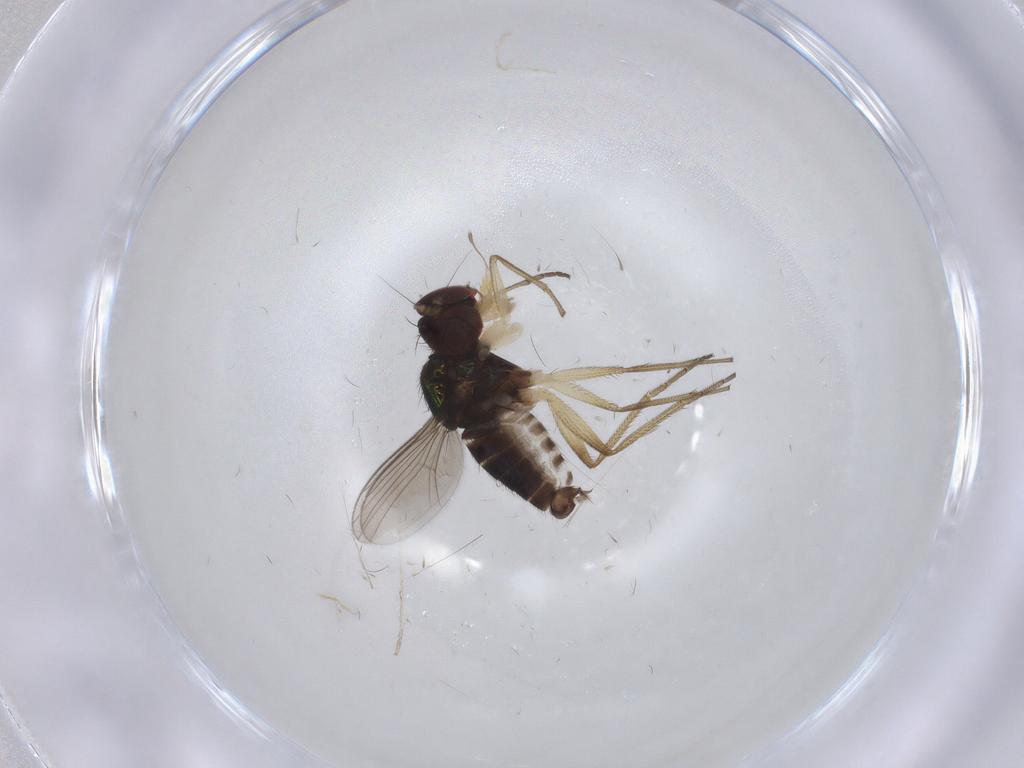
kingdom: Animalia
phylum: Arthropoda
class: Insecta
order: Diptera
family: Dolichopodidae
